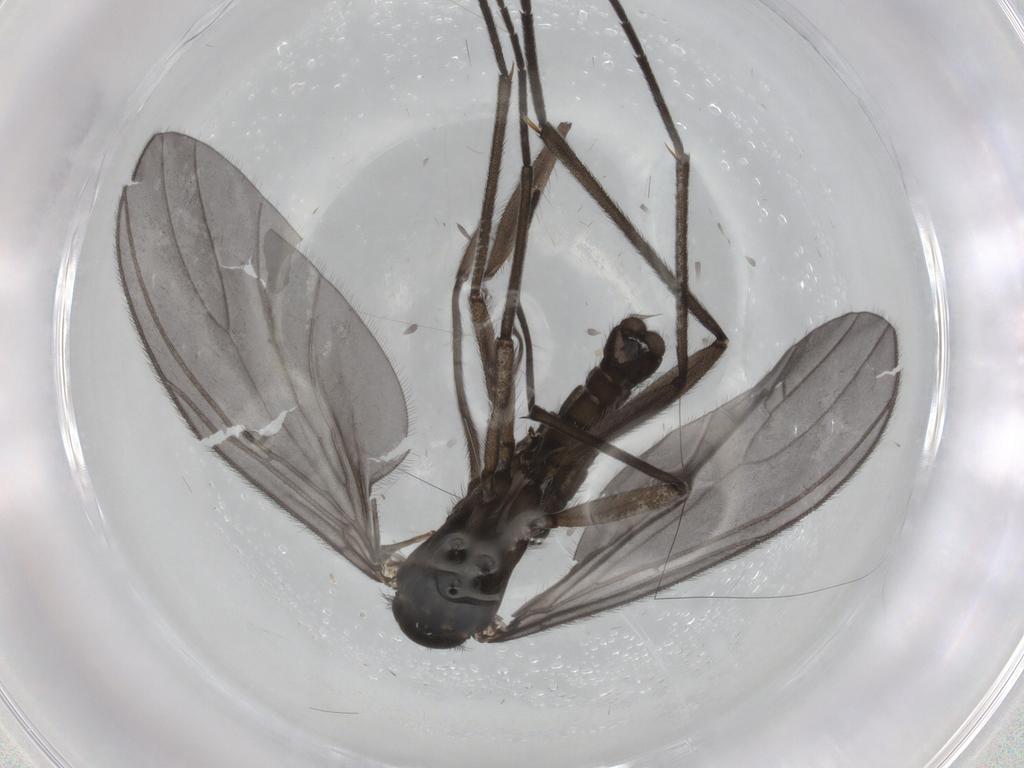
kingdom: Animalia
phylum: Arthropoda
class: Insecta
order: Diptera
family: Sciaridae
